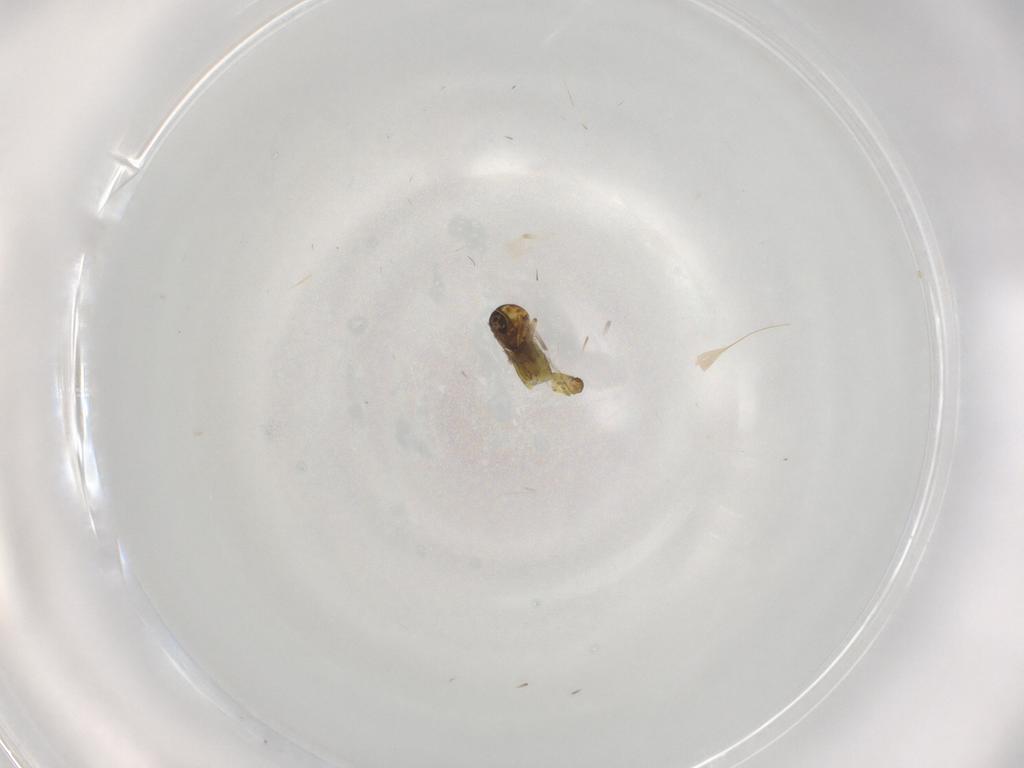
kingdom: Animalia
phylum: Arthropoda
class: Insecta
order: Diptera
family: Ceratopogonidae
